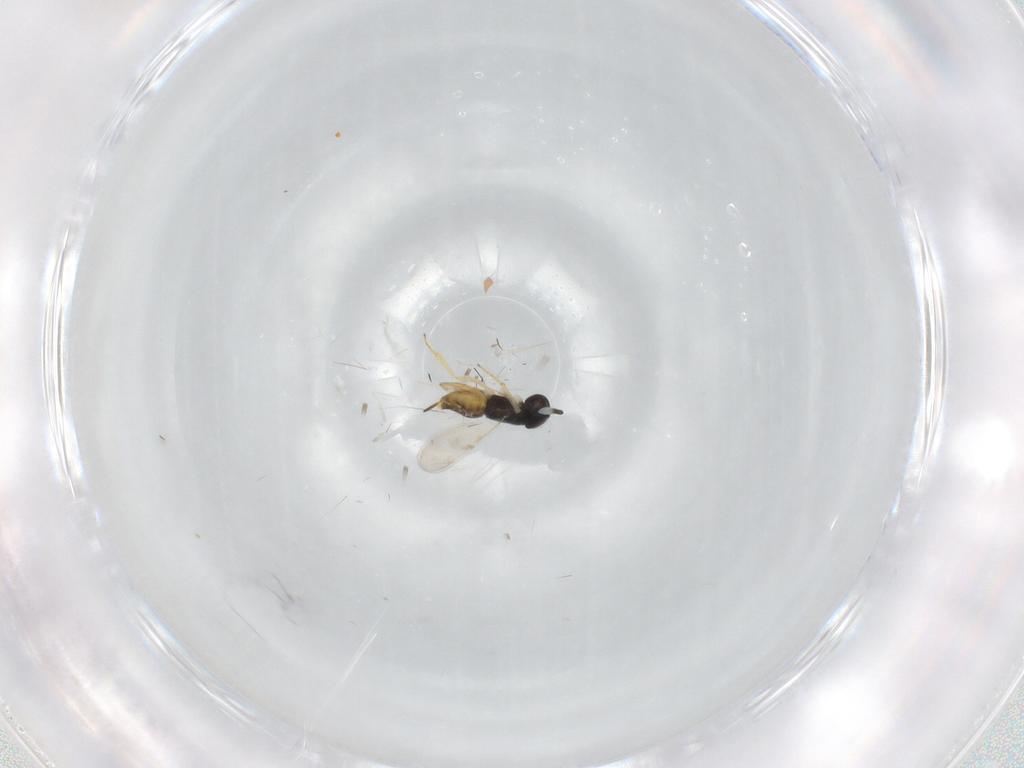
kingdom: Animalia
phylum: Arthropoda
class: Insecta
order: Hymenoptera
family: Encyrtidae
